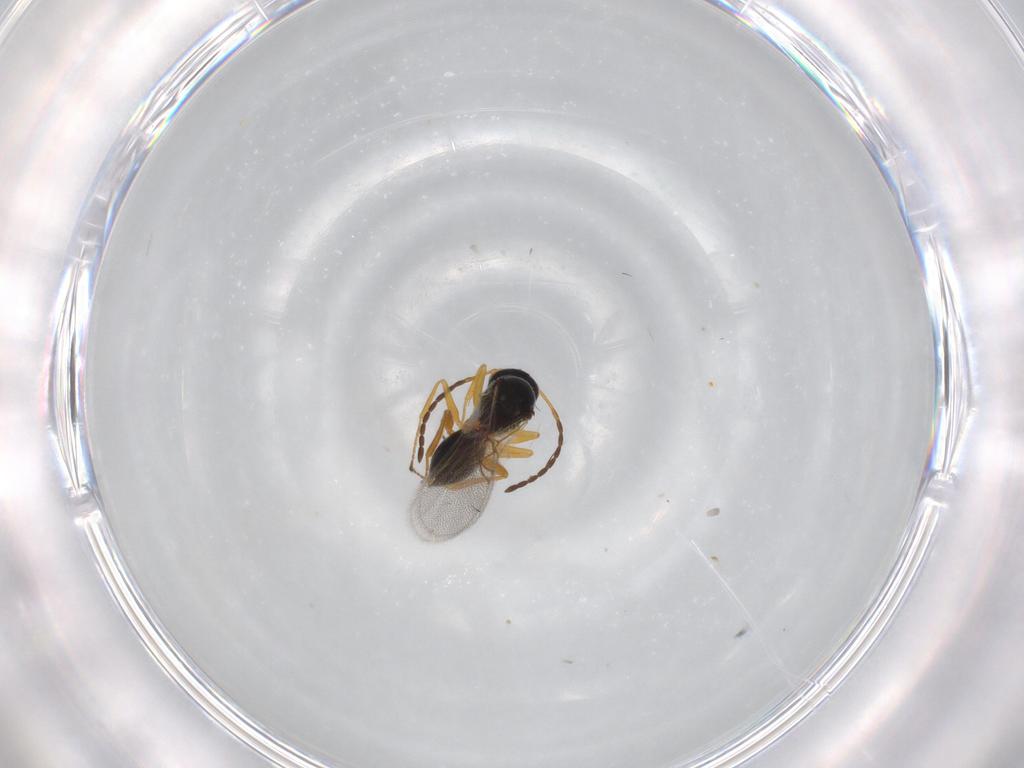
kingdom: Animalia
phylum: Arthropoda
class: Insecta
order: Hymenoptera
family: Figitidae
